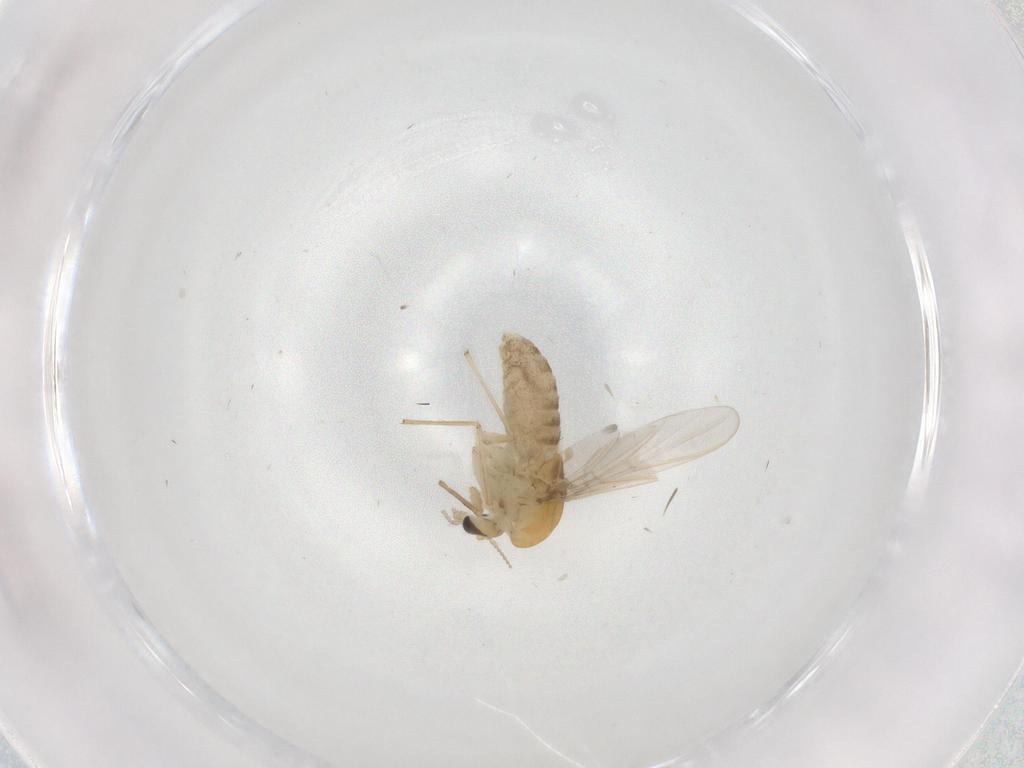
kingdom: Animalia
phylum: Arthropoda
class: Insecta
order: Diptera
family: Chironomidae
